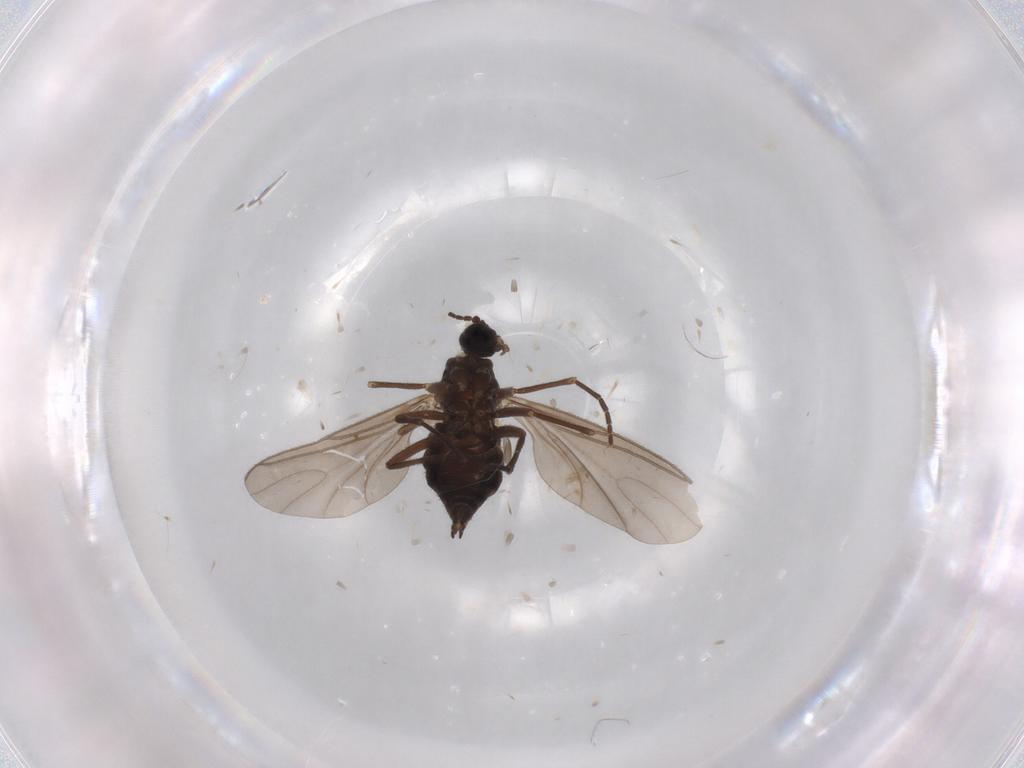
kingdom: Animalia
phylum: Arthropoda
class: Insecta
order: Diptera
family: Sciaridae
